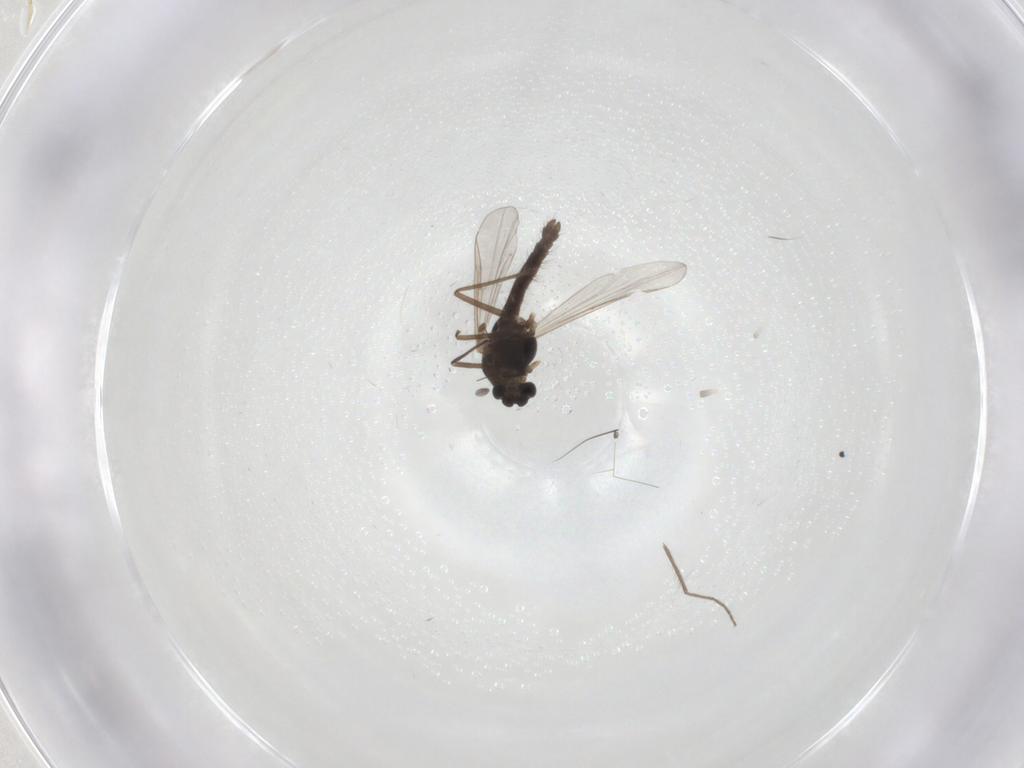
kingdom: Animalia
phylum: Arthropoda
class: Insecta
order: Diptera
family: Chironomidae
